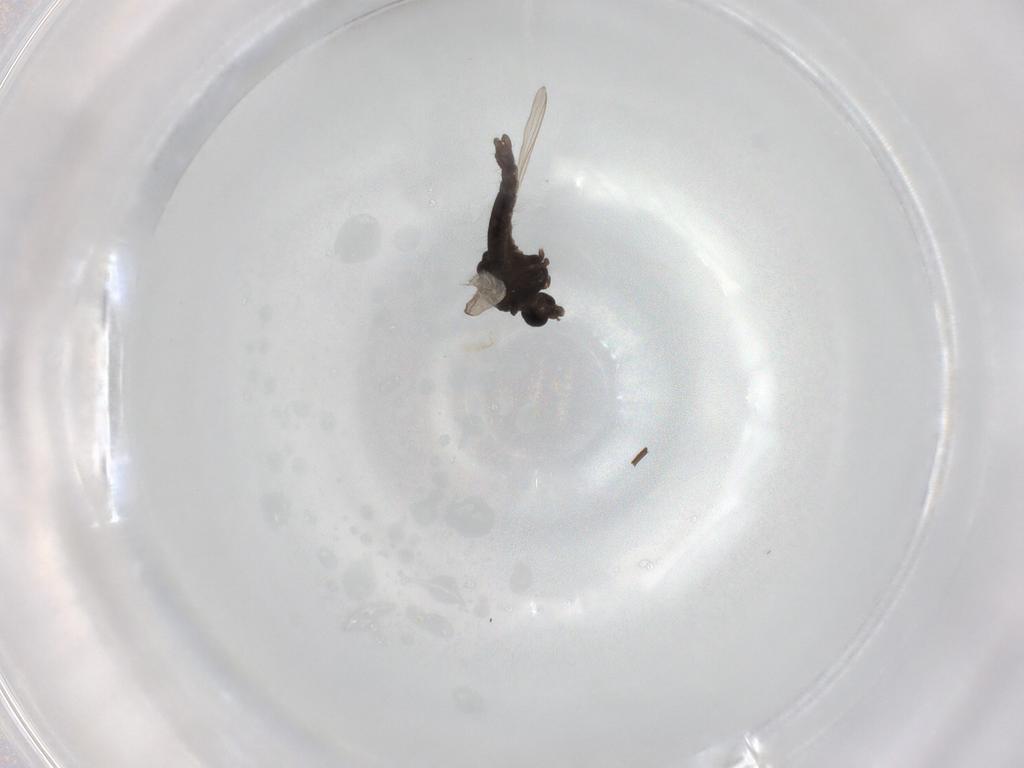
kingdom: Animalia
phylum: Arthropoda
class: Insecta
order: Diptera
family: Chironomidae
